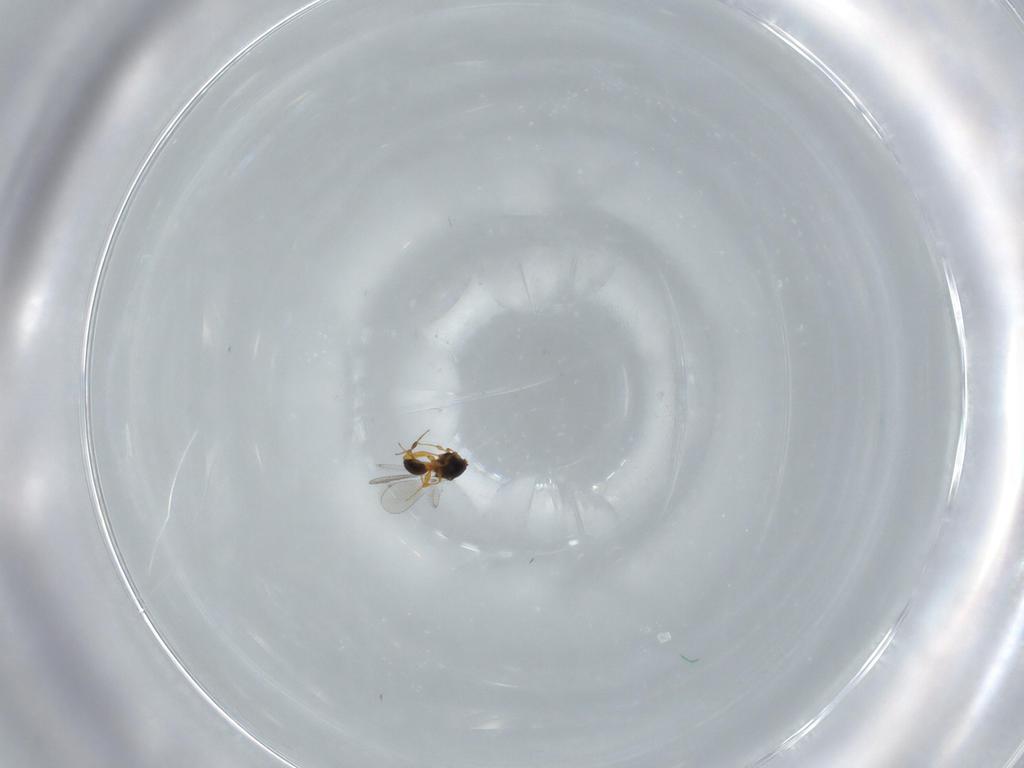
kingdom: Animalia
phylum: Arthropoda
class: Insecta
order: Hymenoptera
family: Platygastridae
